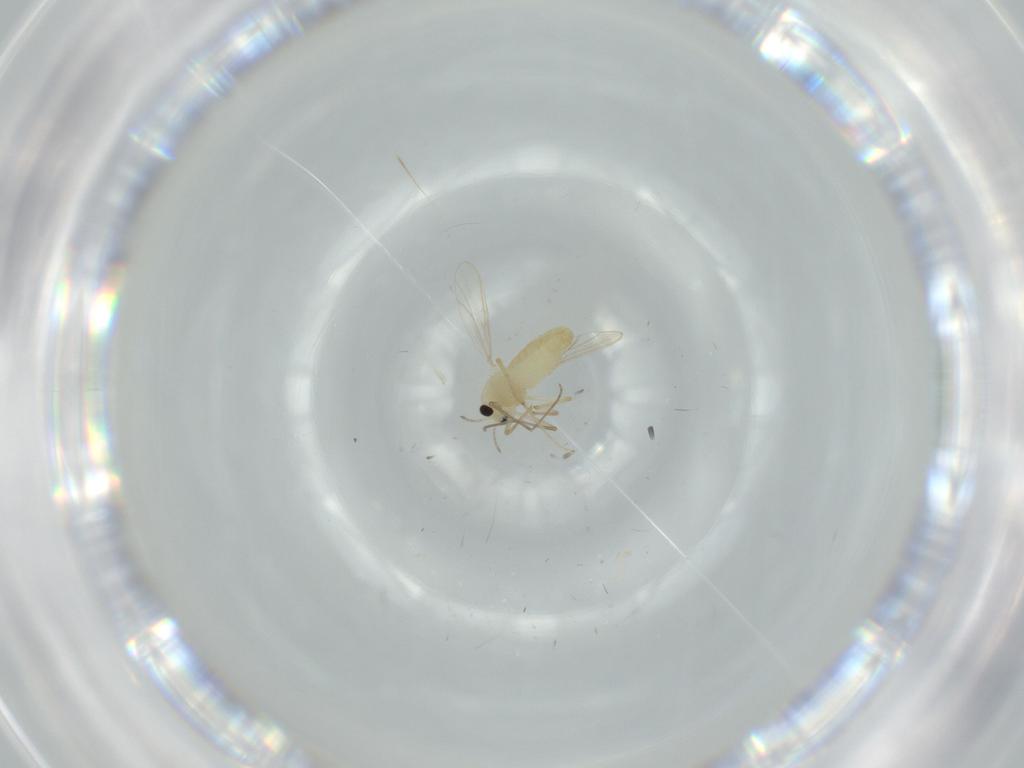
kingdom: Animalia
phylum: Arthropoda
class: Insecta
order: Diptera
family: Chironomidae
